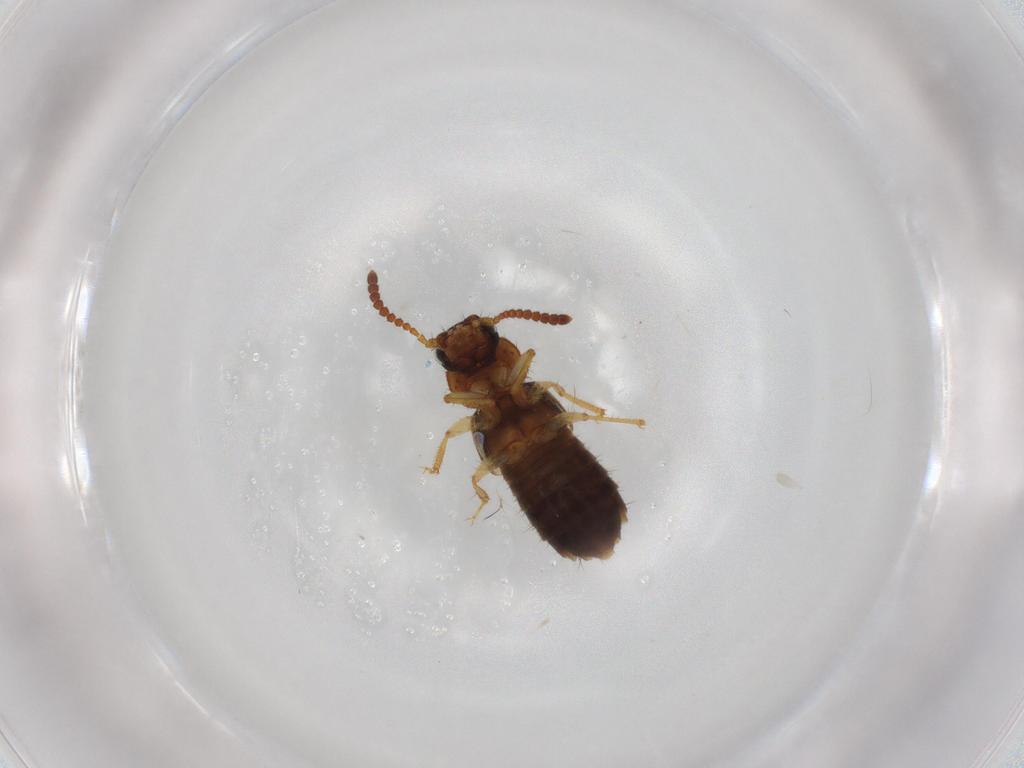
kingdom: Animalia
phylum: Arthropoda
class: Insecta
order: Coleoptera
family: Staphylinidae
